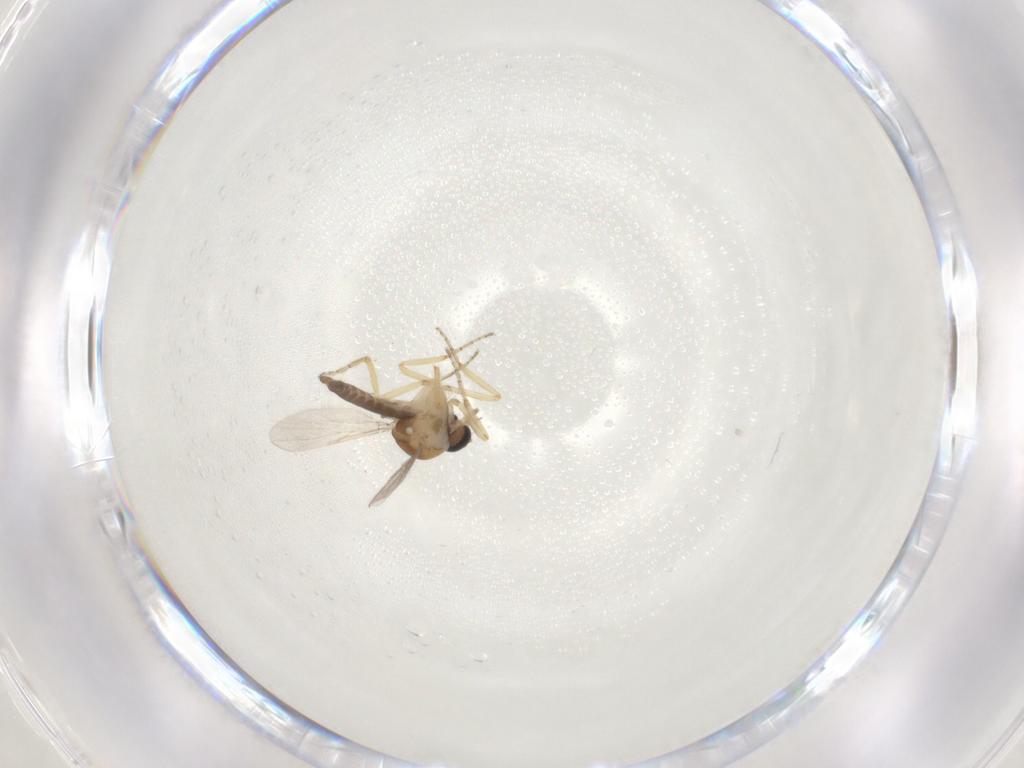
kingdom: Animalia
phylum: Arthropoda
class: Insecta
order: Diptera
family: Ceratopogonidae
